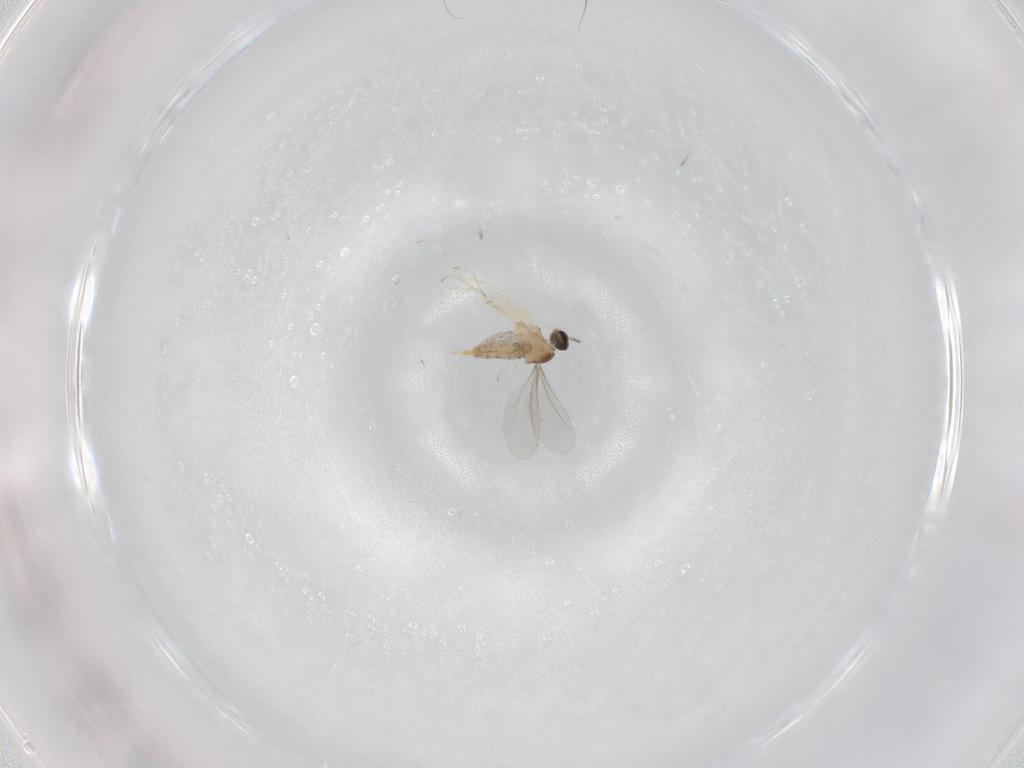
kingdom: Animalia
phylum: Arthropoda
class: Insecta
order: Diptera
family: Cecidomyiidae
